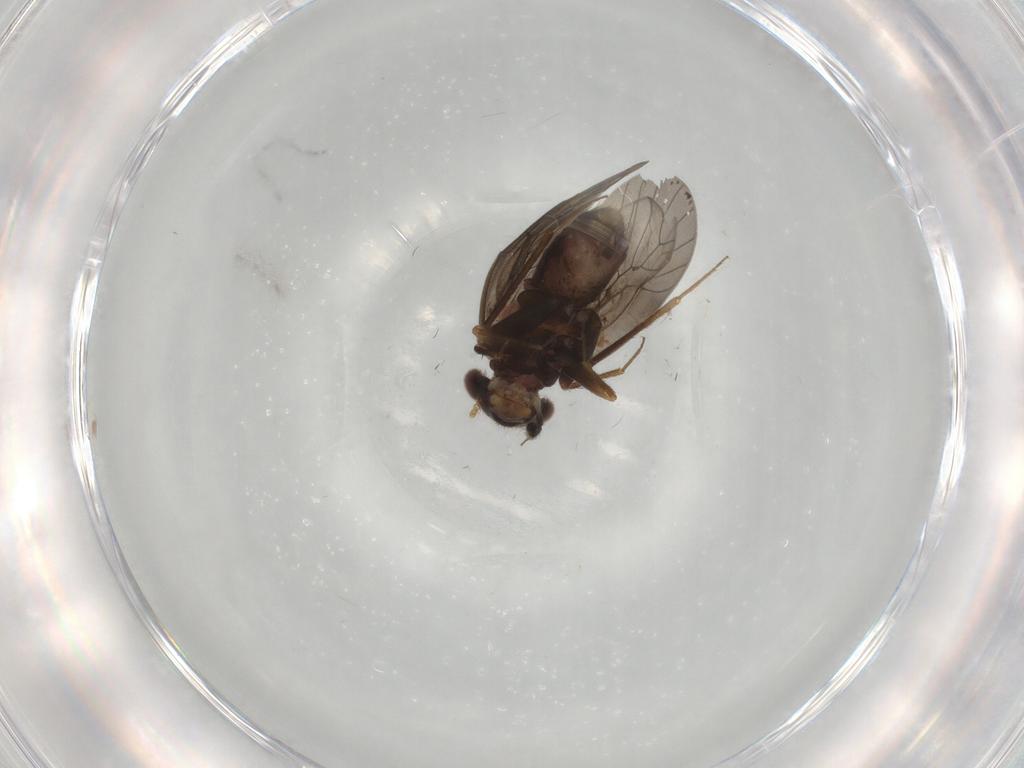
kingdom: Animalia
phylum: Arthropoda
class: Insecta
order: Psocodea
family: Lepidopsocidae
